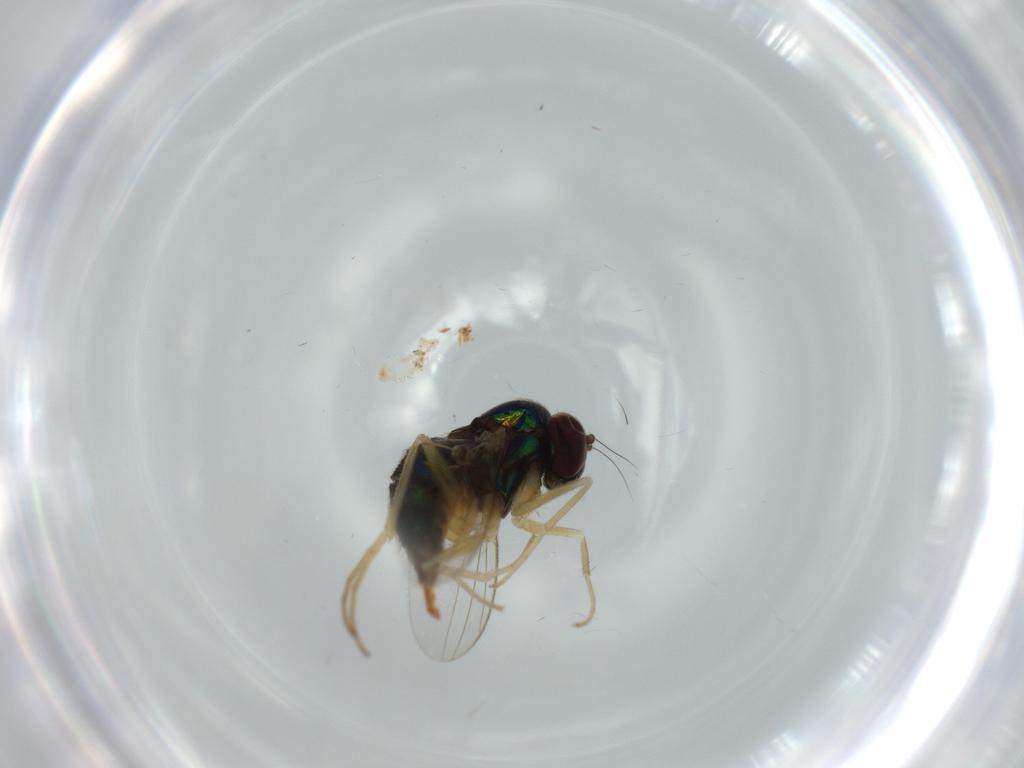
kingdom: Animalia
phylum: Arthropoda
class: Insecta
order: Diptera
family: Dolichopodidae
